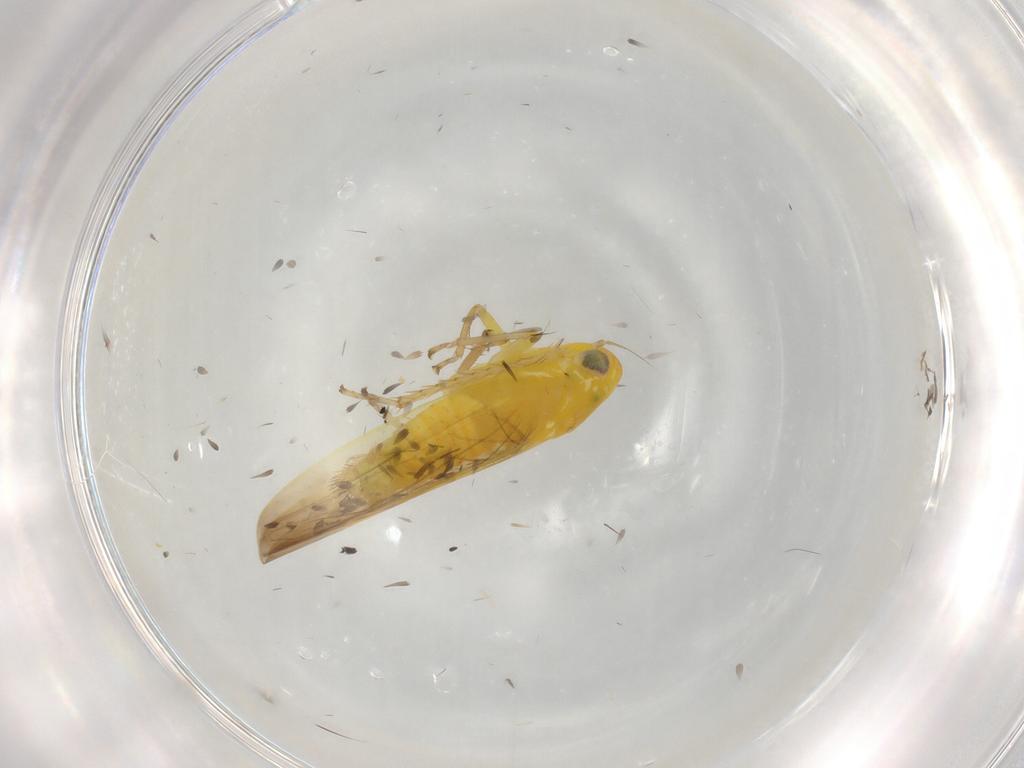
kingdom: Animalia
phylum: Arthropoda
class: Insecta
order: Hemiptera
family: Cicadellidae
